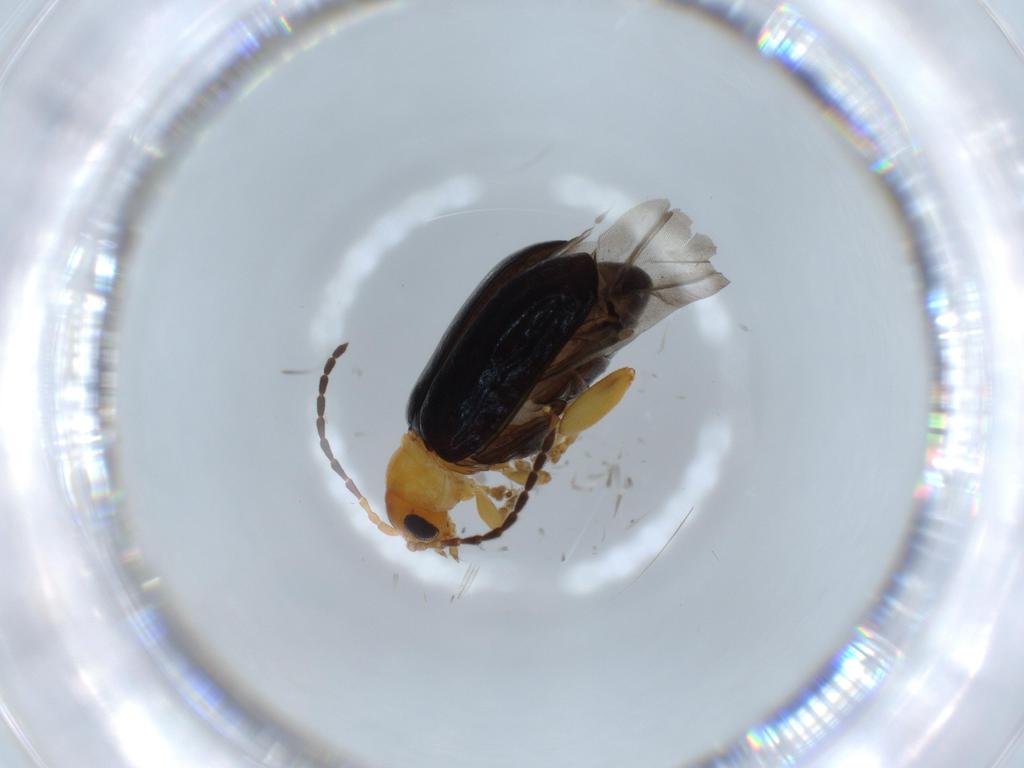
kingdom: Animalia
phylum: Arthropoda
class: Insecta
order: Coleoptera
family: Chrysomelidae
